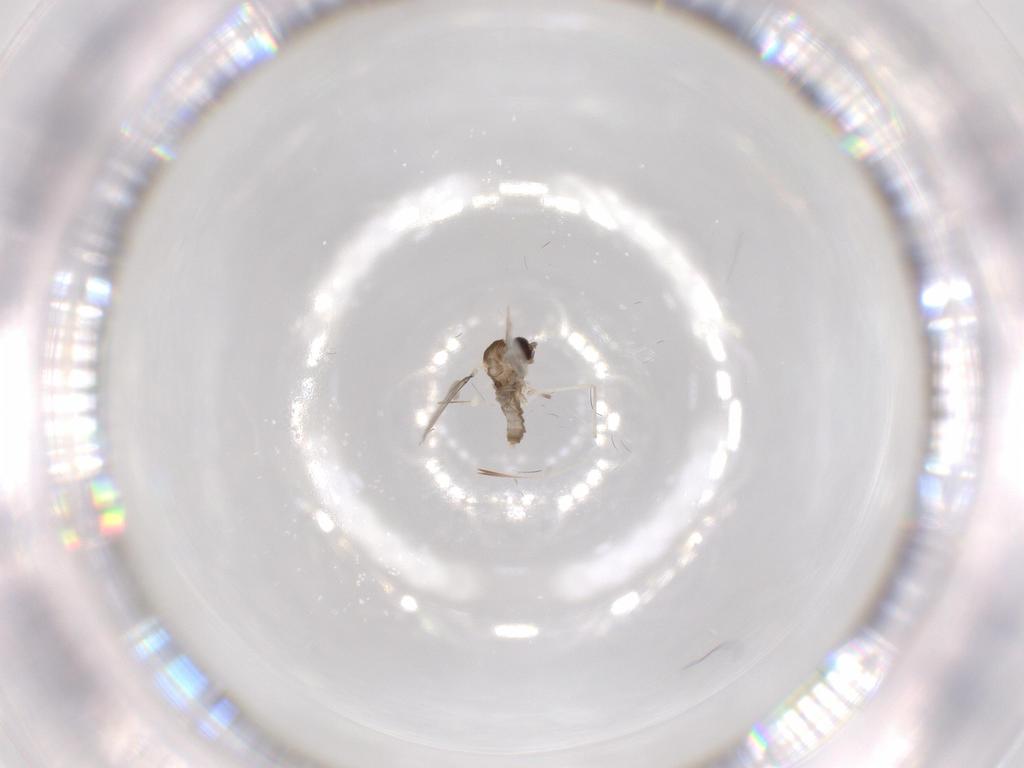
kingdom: Animalia
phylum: Arthropoda
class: Insecta
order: Diptera
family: Cecidomyiidae
